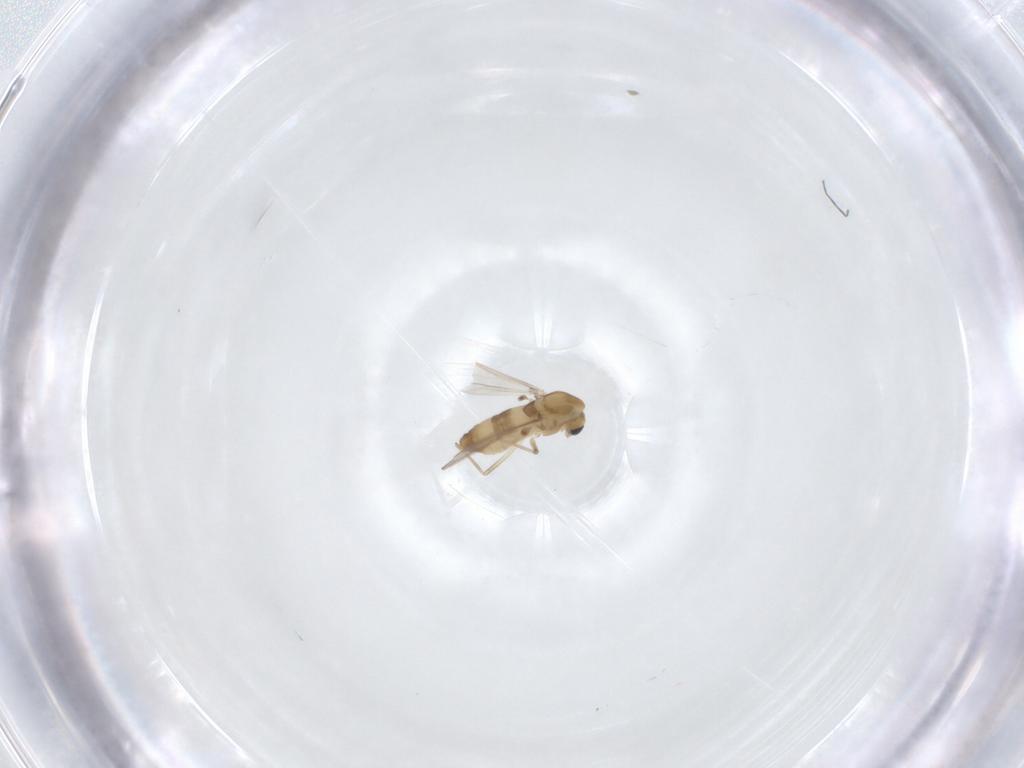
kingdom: Animalia
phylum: Arthropoda
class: Insecta
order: Diptera
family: Chironomidae
